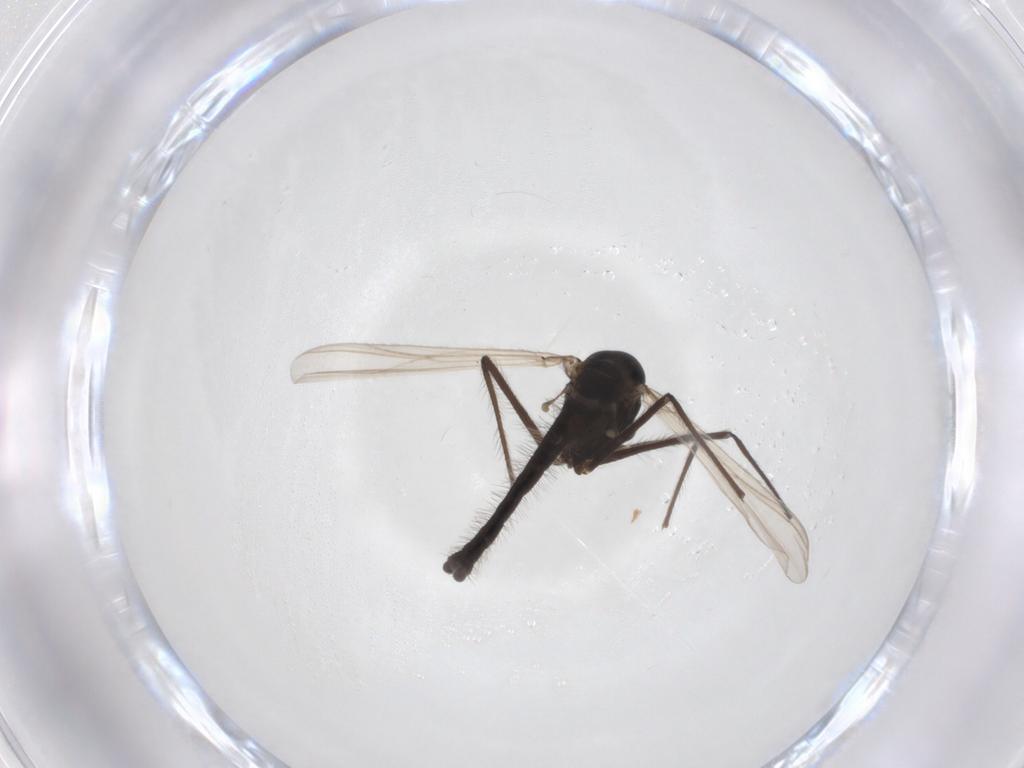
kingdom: Animalia
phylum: Arthropoda
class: Insecta
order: Diptera
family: Chironomidae
